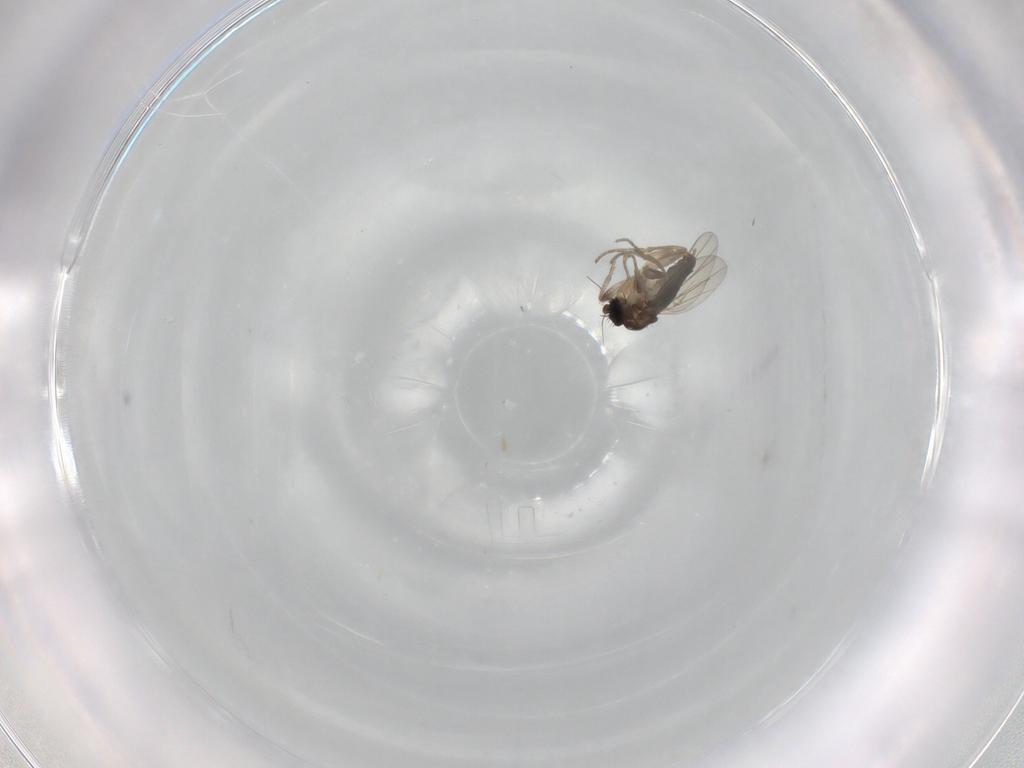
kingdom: Animalia
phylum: Arthropoda
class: Insecta
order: Diptera
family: Phoridae
